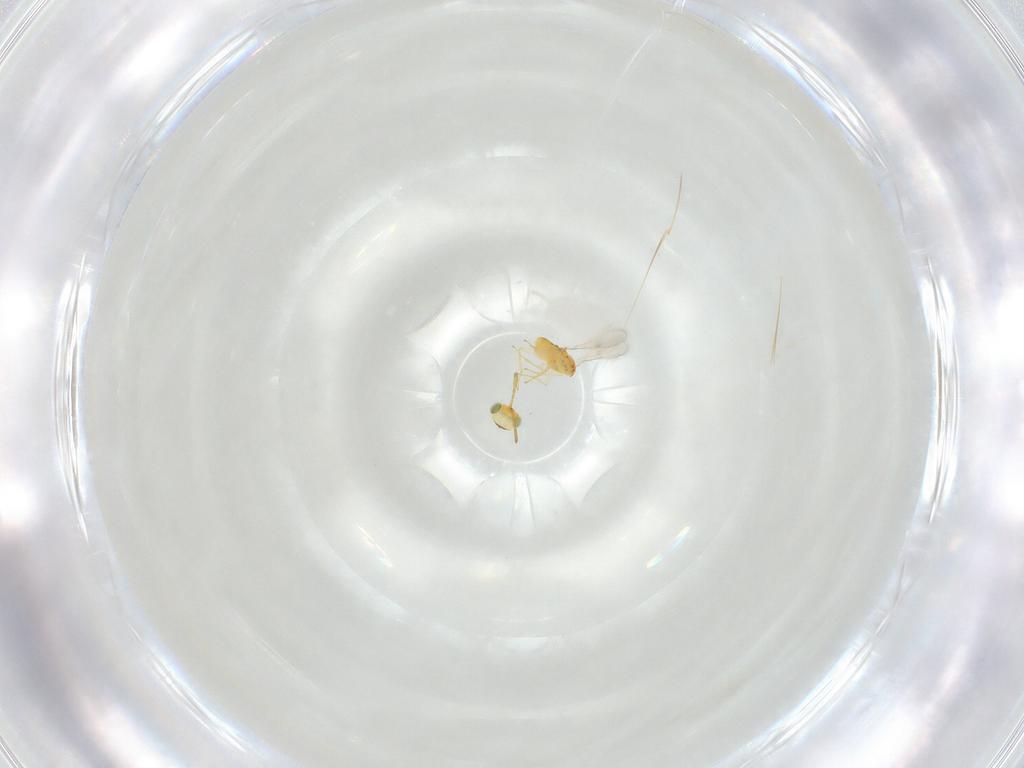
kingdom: Animalia
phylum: Arthropoda
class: Insecta
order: Hymenoptera
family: Aphelinidae
